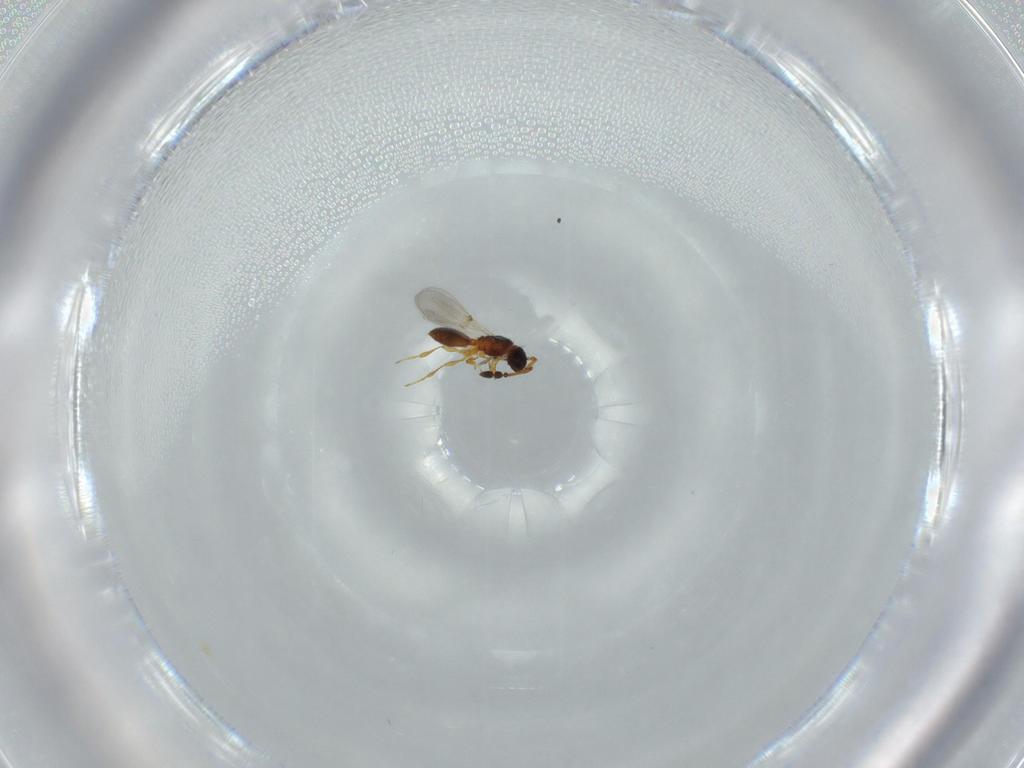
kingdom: Animalia
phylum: Arthropoda
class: Insecta
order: Hymenoptera
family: Diapriidae
